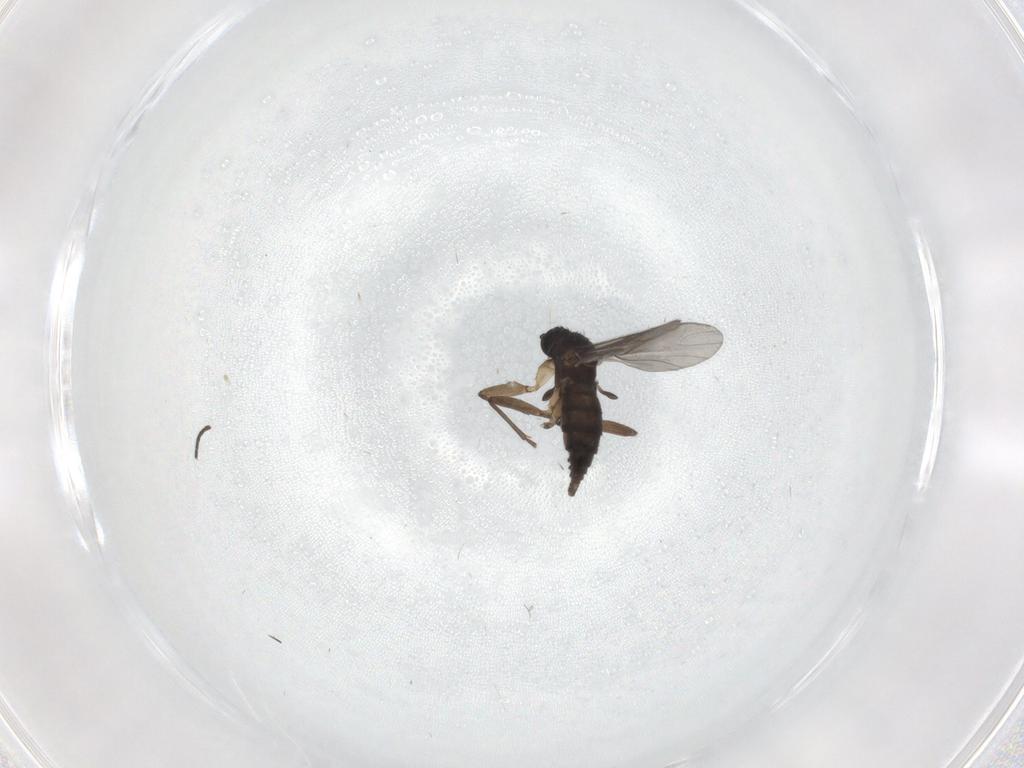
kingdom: Animalia
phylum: Arthropoda
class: Insecta
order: Diptera
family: Sciaridae
